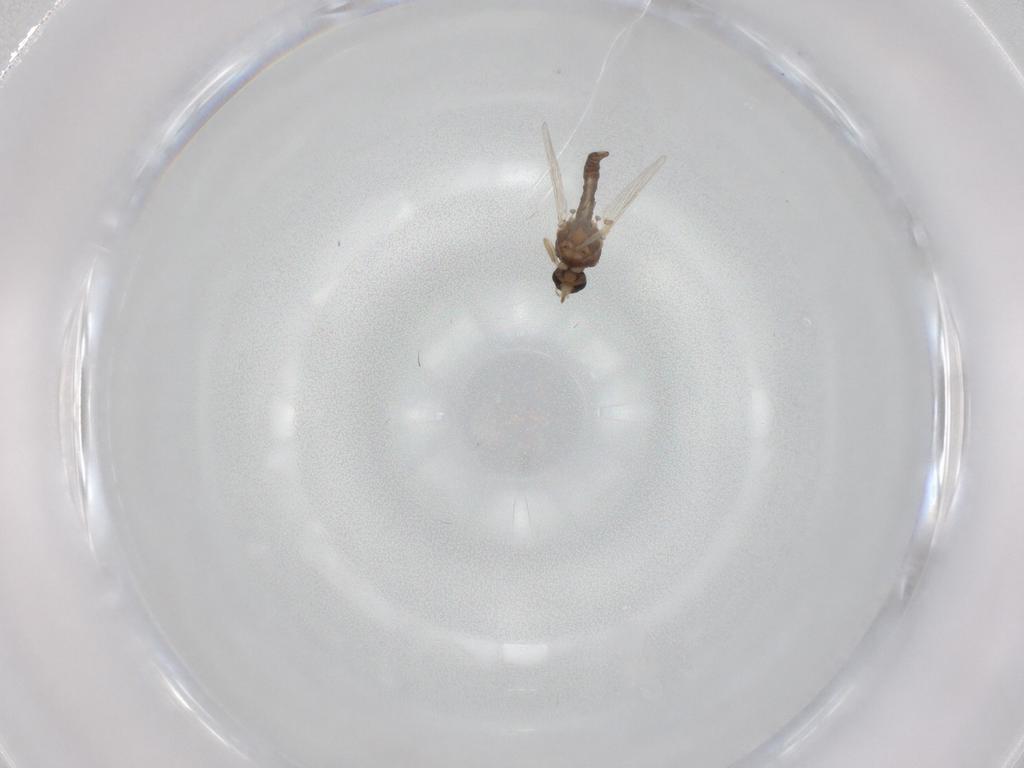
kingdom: Animalia
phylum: Arthropoda
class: Insecta
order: Diptera
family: Ceratopogonidae
